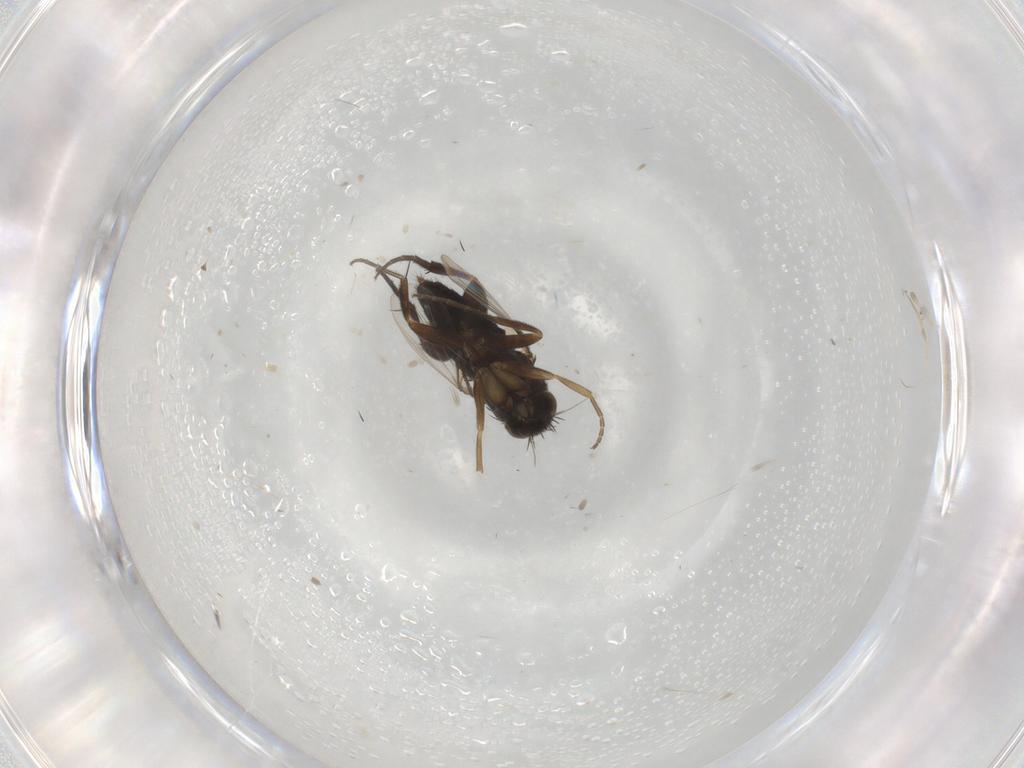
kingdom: Animalia
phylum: Arthropoda
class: Insecta
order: Diptera
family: Phoridae
